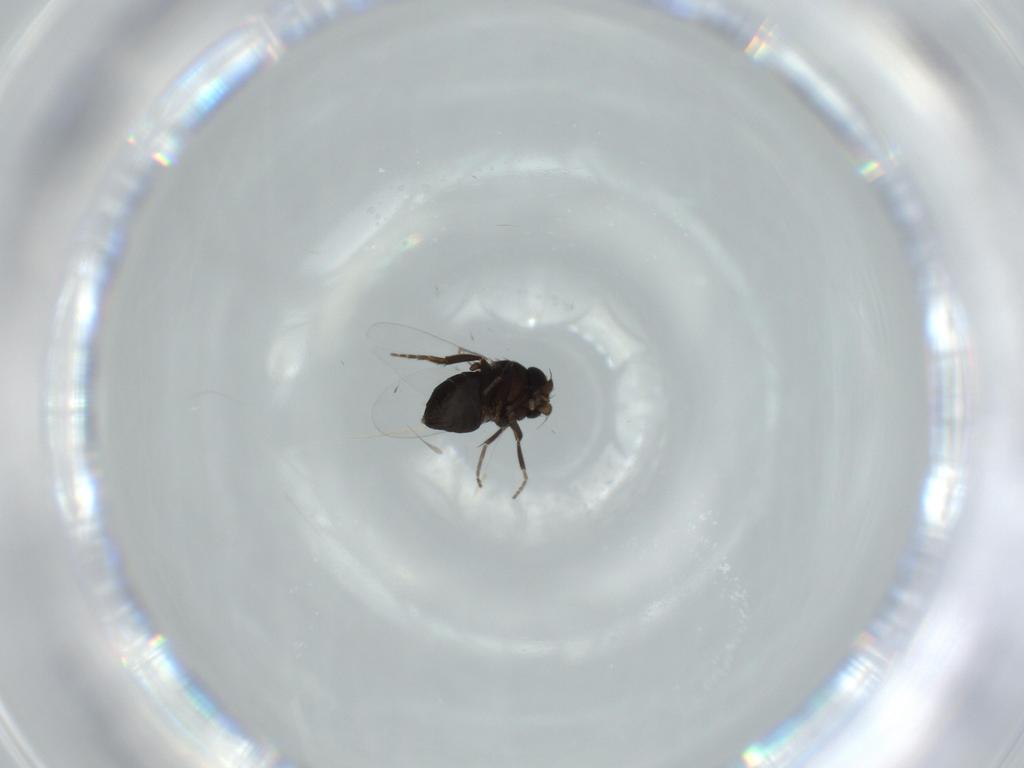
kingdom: Animalia
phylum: Arthropoda
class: Insecta
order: Diptera
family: Phoridae
